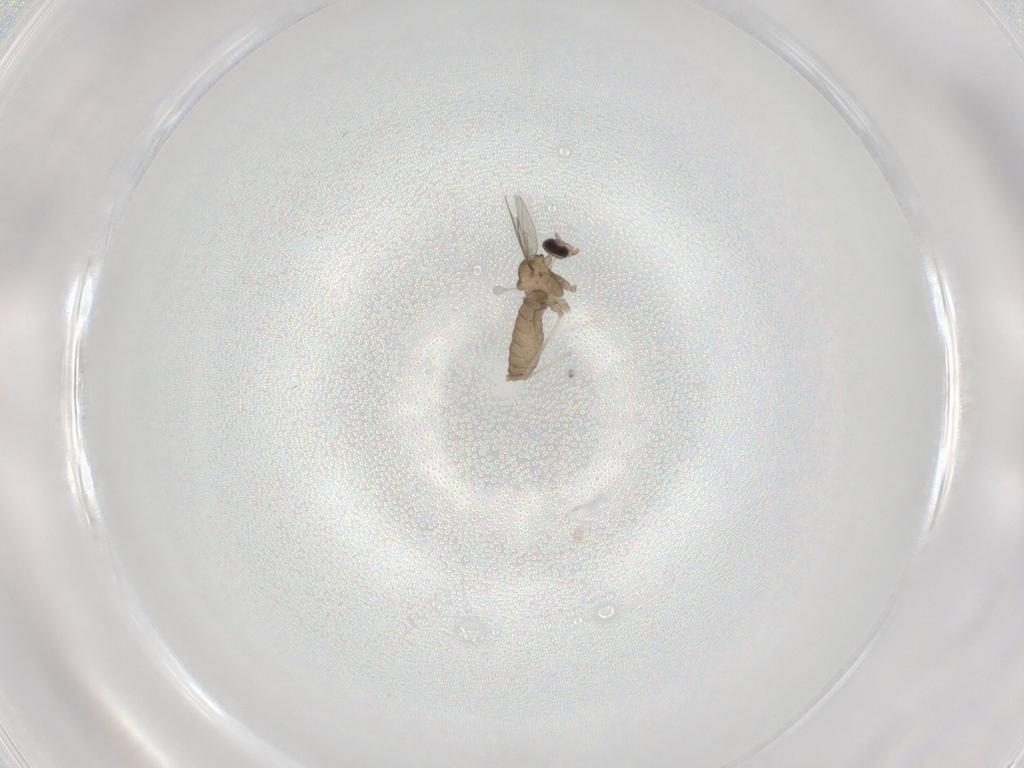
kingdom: Animalia
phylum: Arthropoda
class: Insecta
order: Diptera
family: Cecidomyiidae
